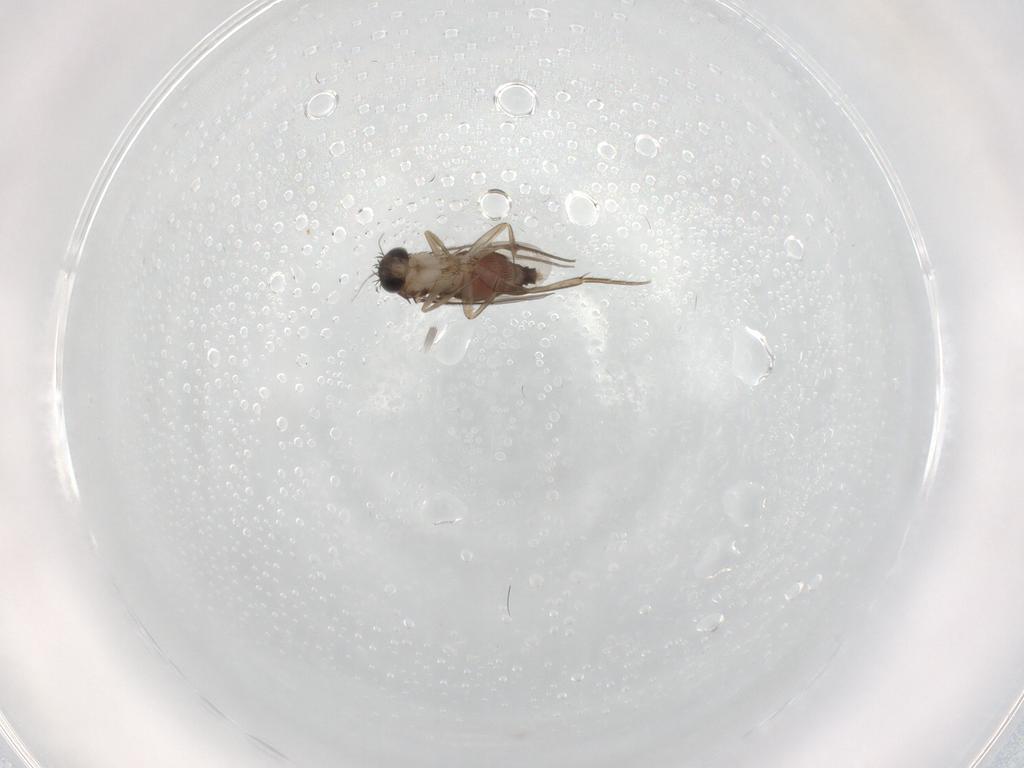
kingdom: Animalia
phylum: Arthropoda
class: Insecta
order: Diptera
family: Phoridae
